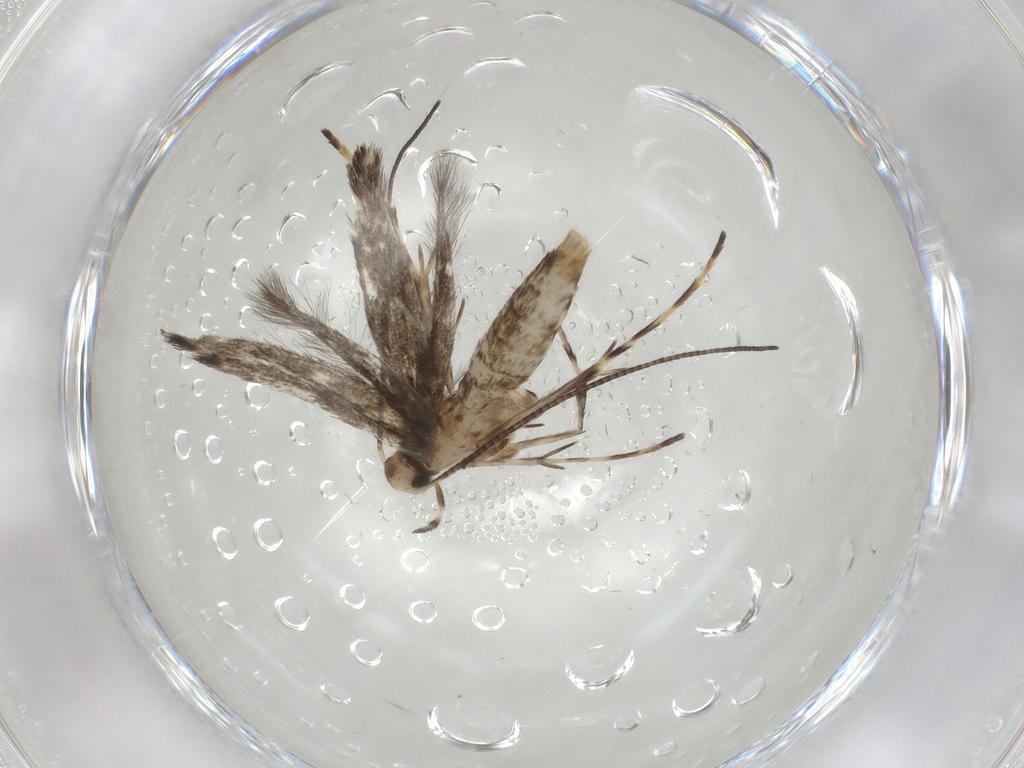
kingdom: Animalia
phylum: Arthropoda
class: Insecta
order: Lepidoptera
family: Gracillariidae
